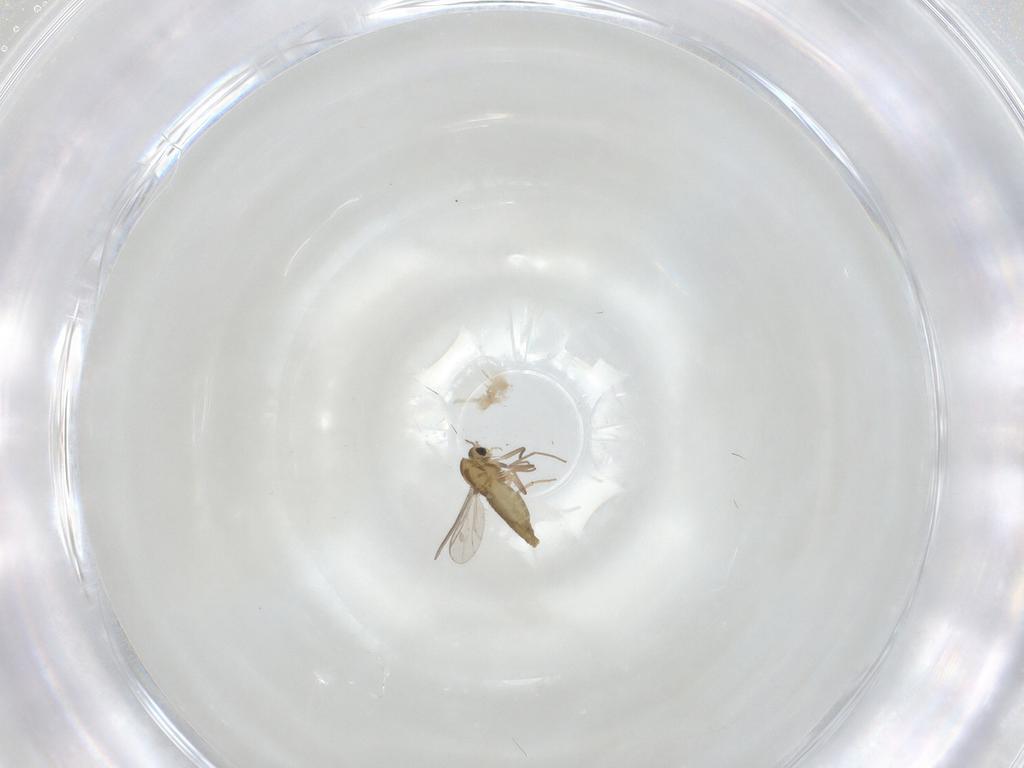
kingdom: Animalia
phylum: Arthropoda
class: Insecta
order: Diptera
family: Chironomidae
